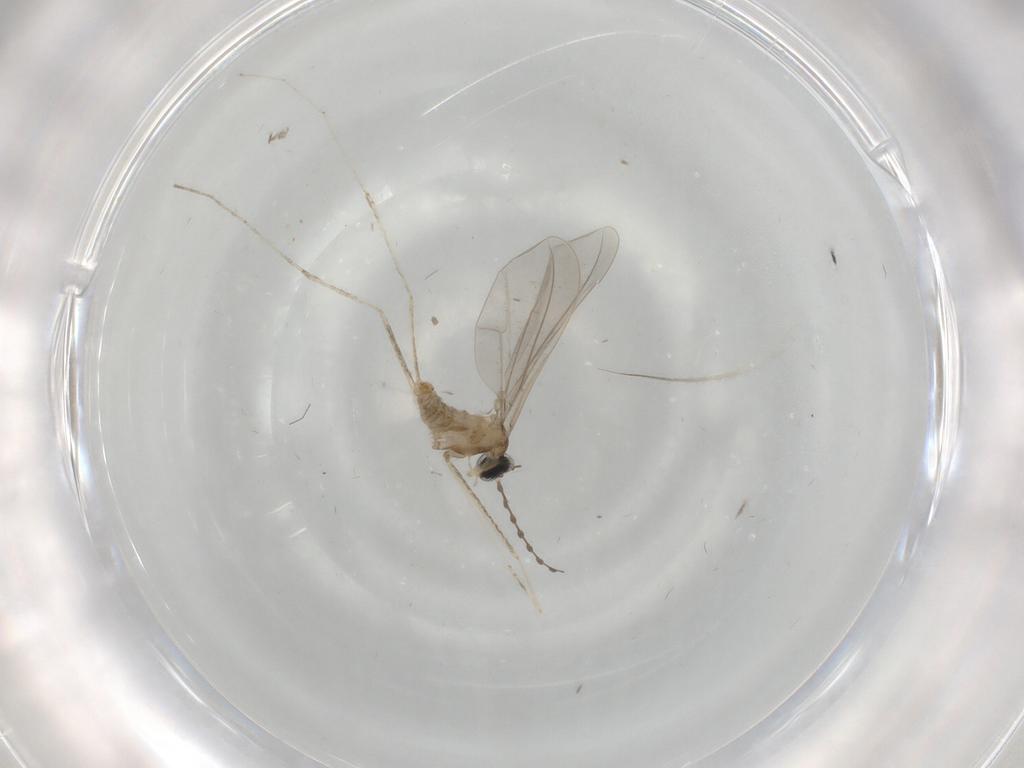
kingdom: Animalia
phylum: Arthropoda
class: Insecta
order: Diptera
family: Cecidomyiidae
